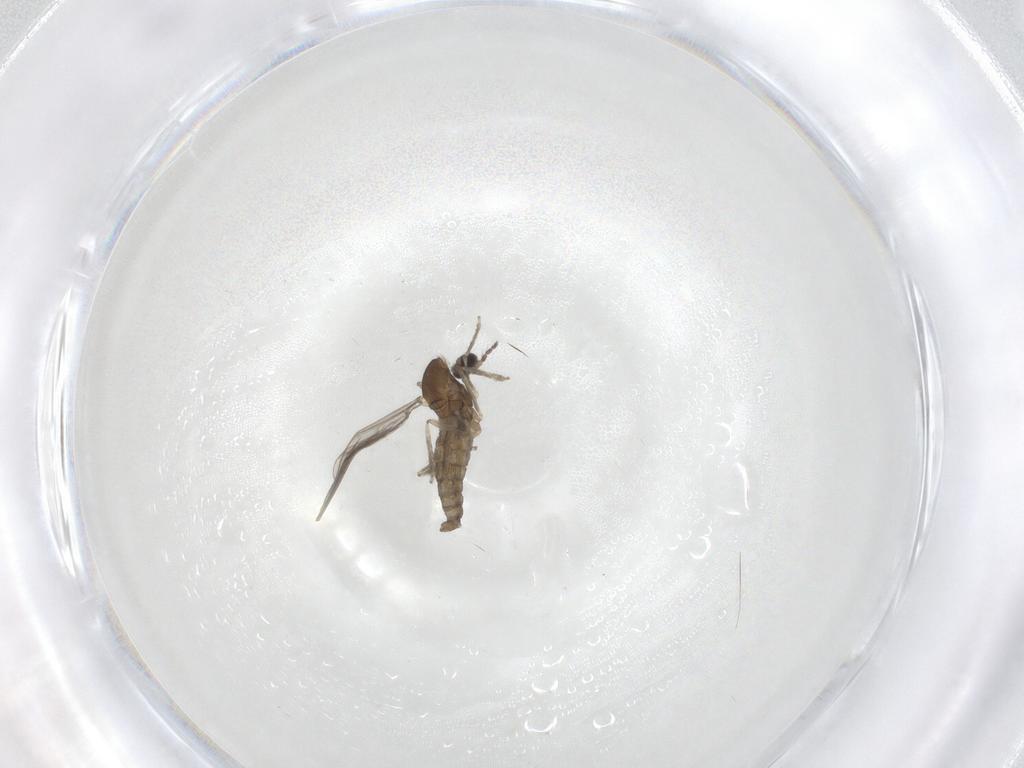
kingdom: Animalia
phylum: Arthropoda
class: Insecta
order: Diptera
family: Cecidomyiidae
